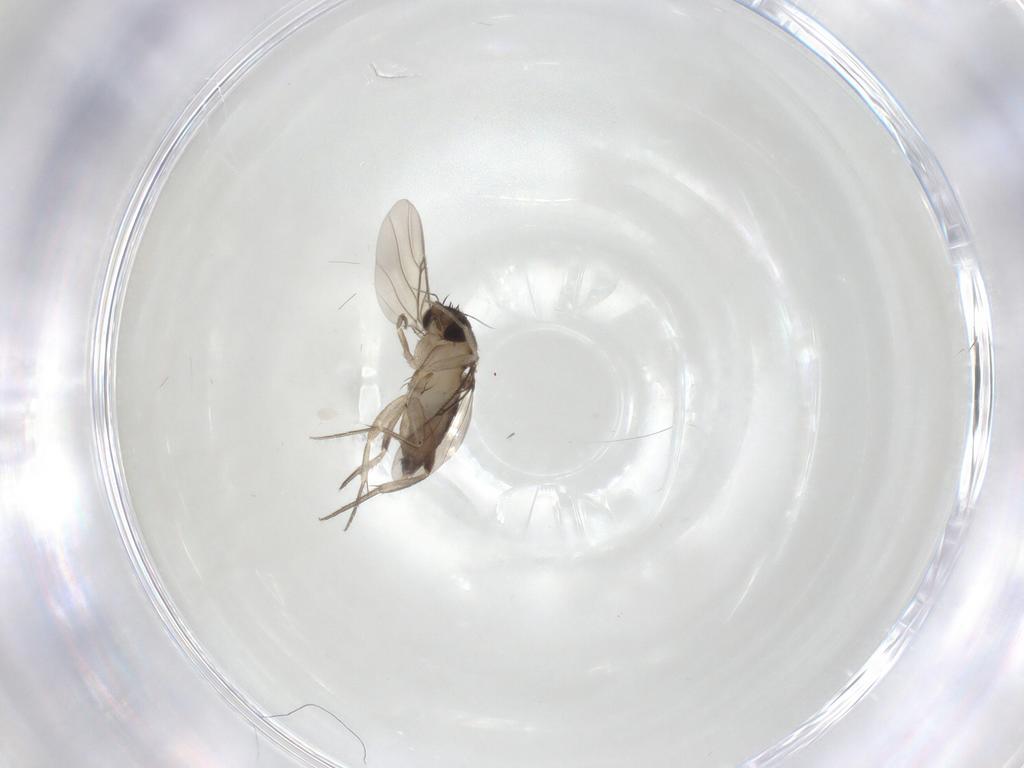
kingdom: Animalia
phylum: Arthropoda
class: Insecta
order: Diptera
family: Phoridae
